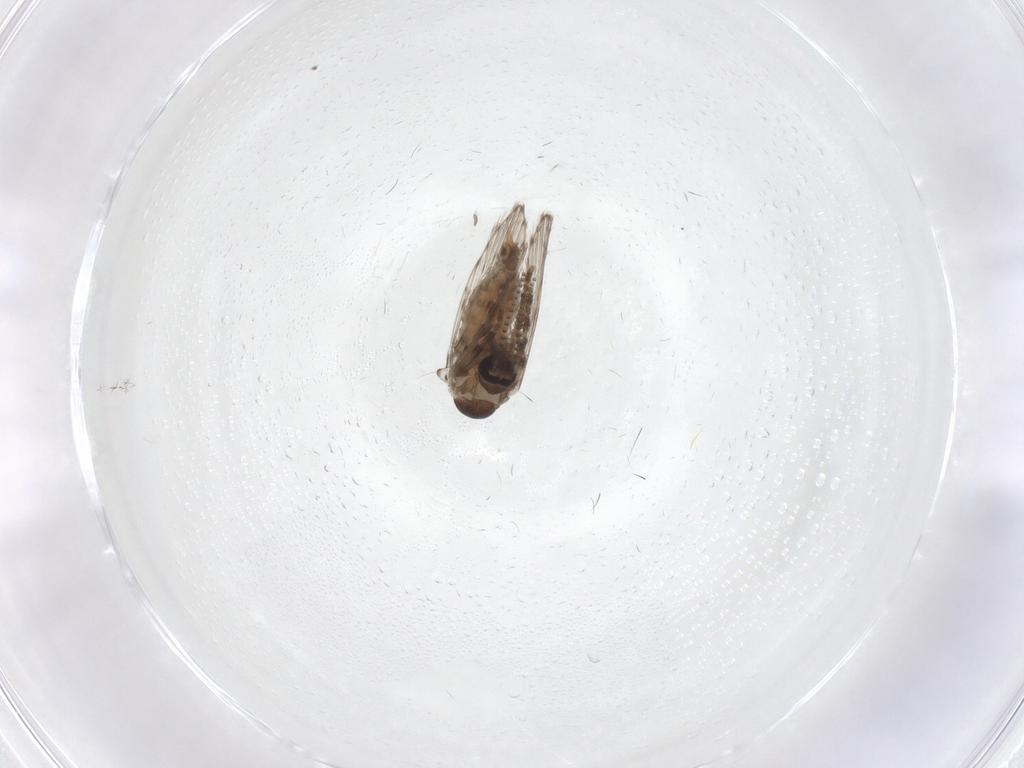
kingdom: Animalia
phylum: Arthropoda
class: Insecta
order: Diptera
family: Psychodidae
